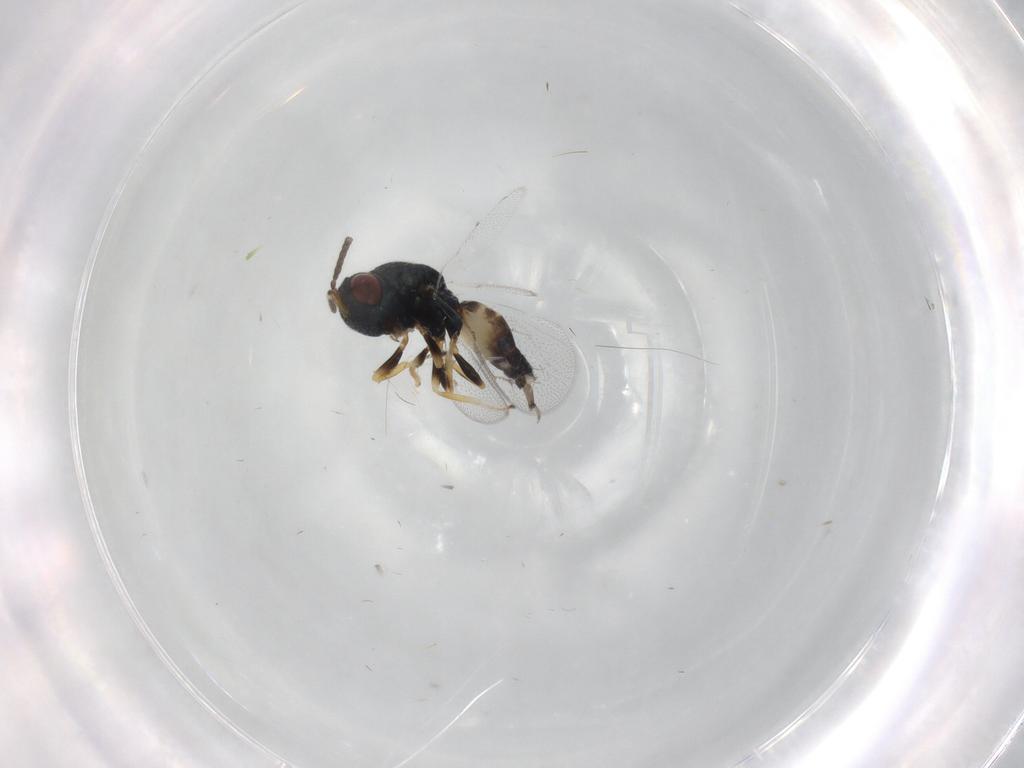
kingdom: Animalia
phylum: Arthropoda
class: Insecta
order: Hymenoptera
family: Pteromalidae
